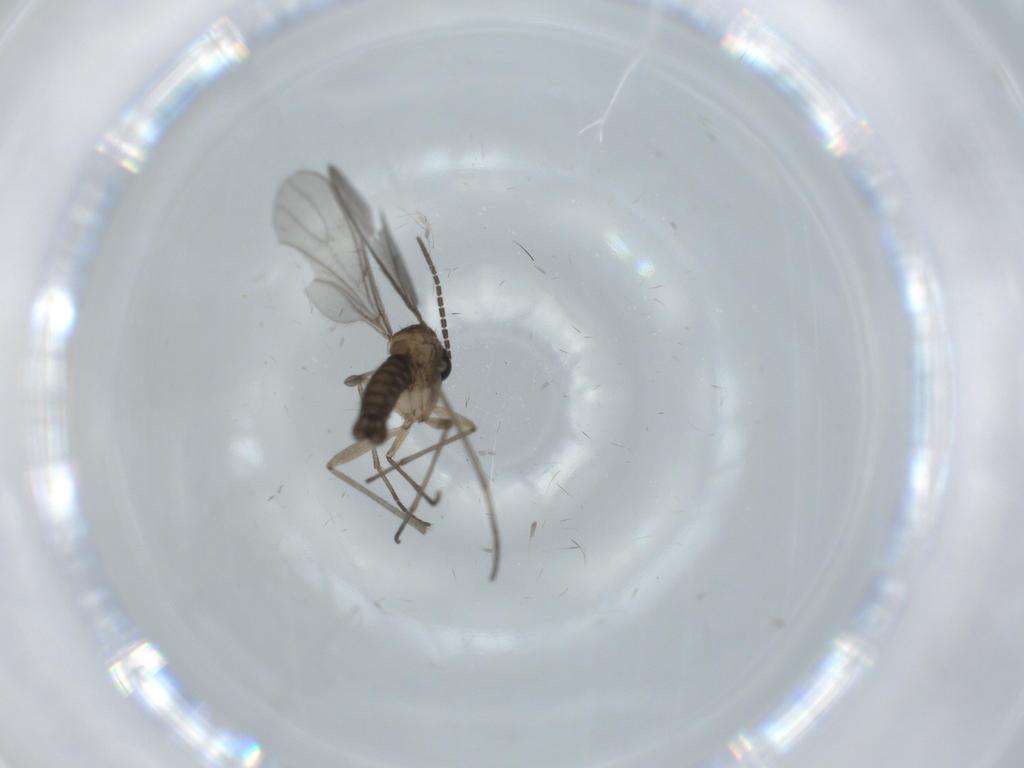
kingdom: Animalia
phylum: Arthropoda
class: Insecta
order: Diptera
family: Sciaridae
